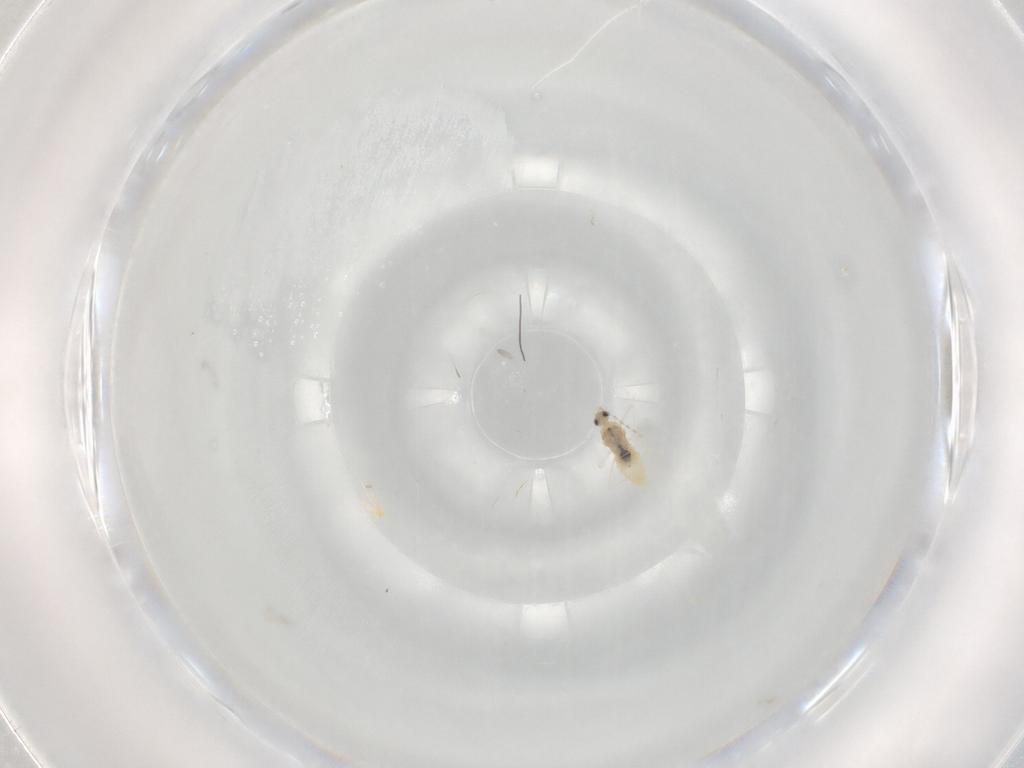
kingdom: Animalia
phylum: Arthropoda
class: Insecta
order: Diptera
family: Cecidomyiidae
